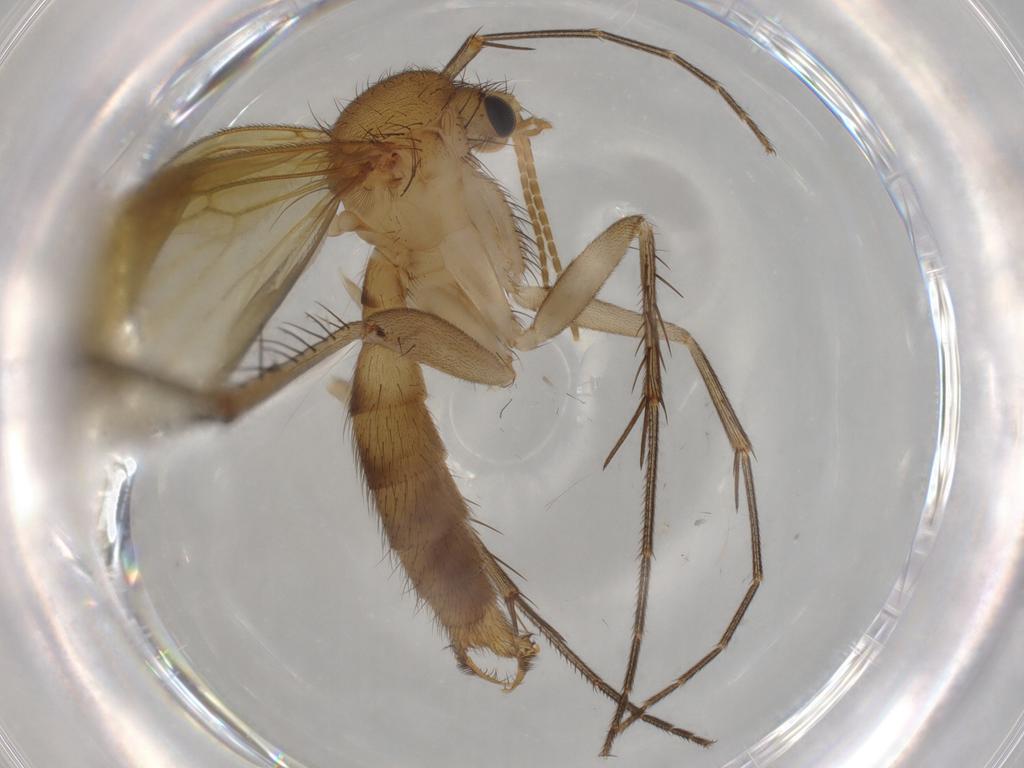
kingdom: Animalia
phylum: Arthropoda
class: Insecta
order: Diptera
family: Mycetophilidae
